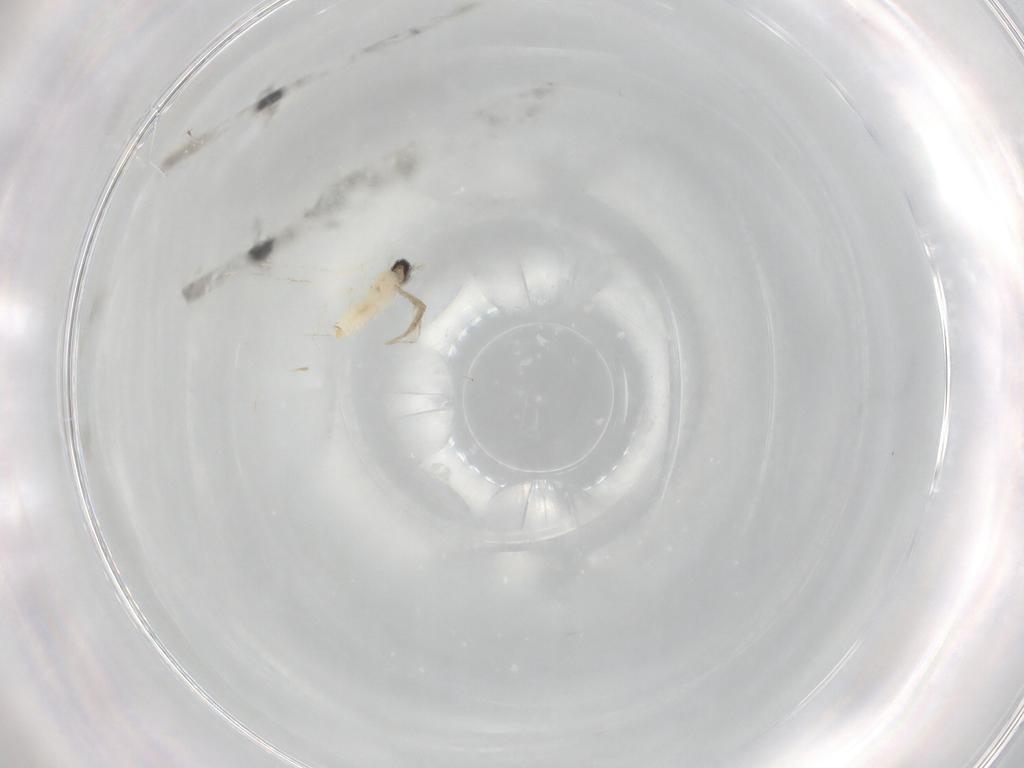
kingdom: Animalia
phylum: Arthropoda
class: Insecta
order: Diptera
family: Cecidomyiidae
